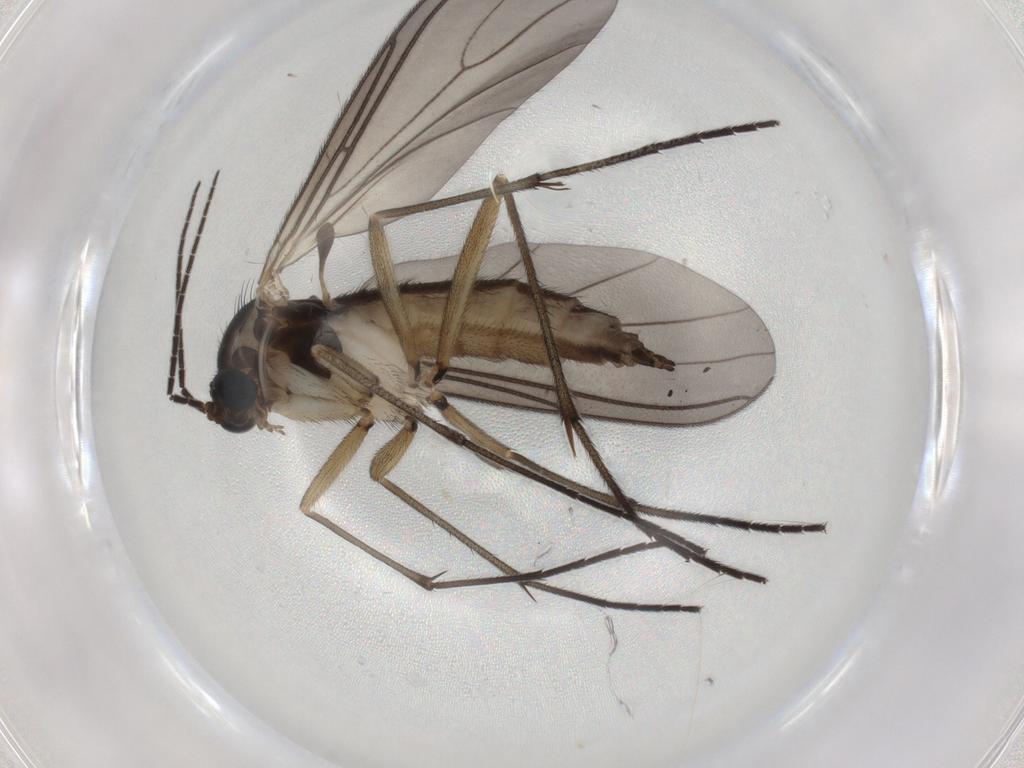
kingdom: Animalia
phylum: Arthropoda
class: Insecta
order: Diptera
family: Sciaridae
